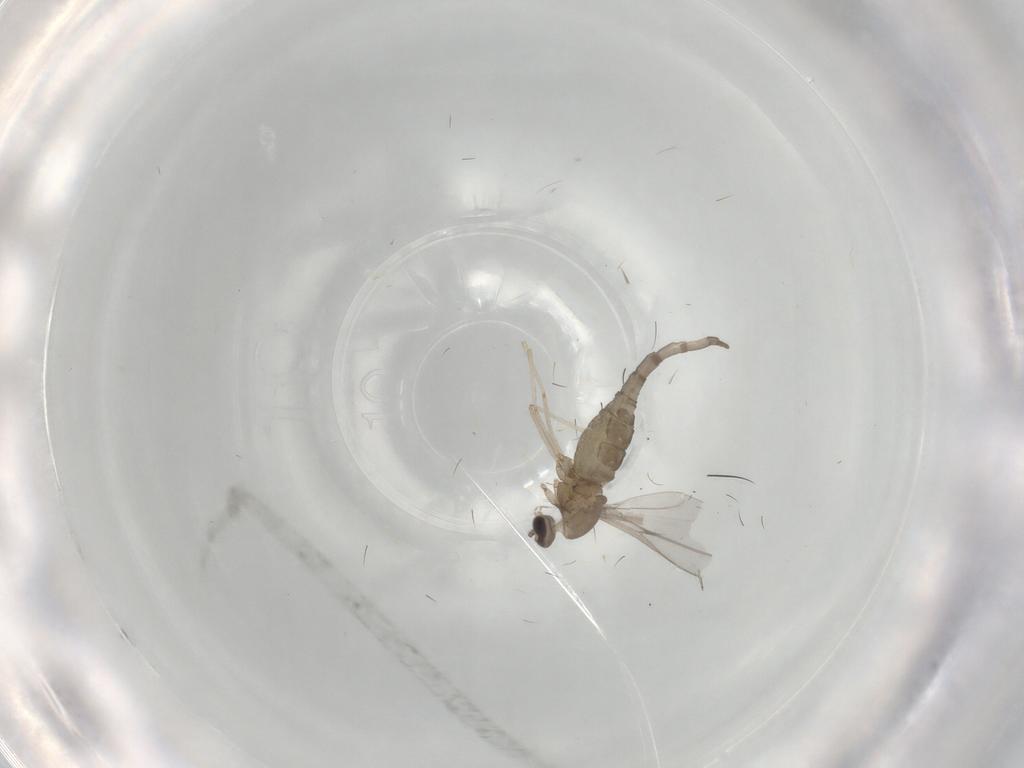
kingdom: Animalia
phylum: Arthropoda
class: Insecta
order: Diptera
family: Cecidomyiidae
